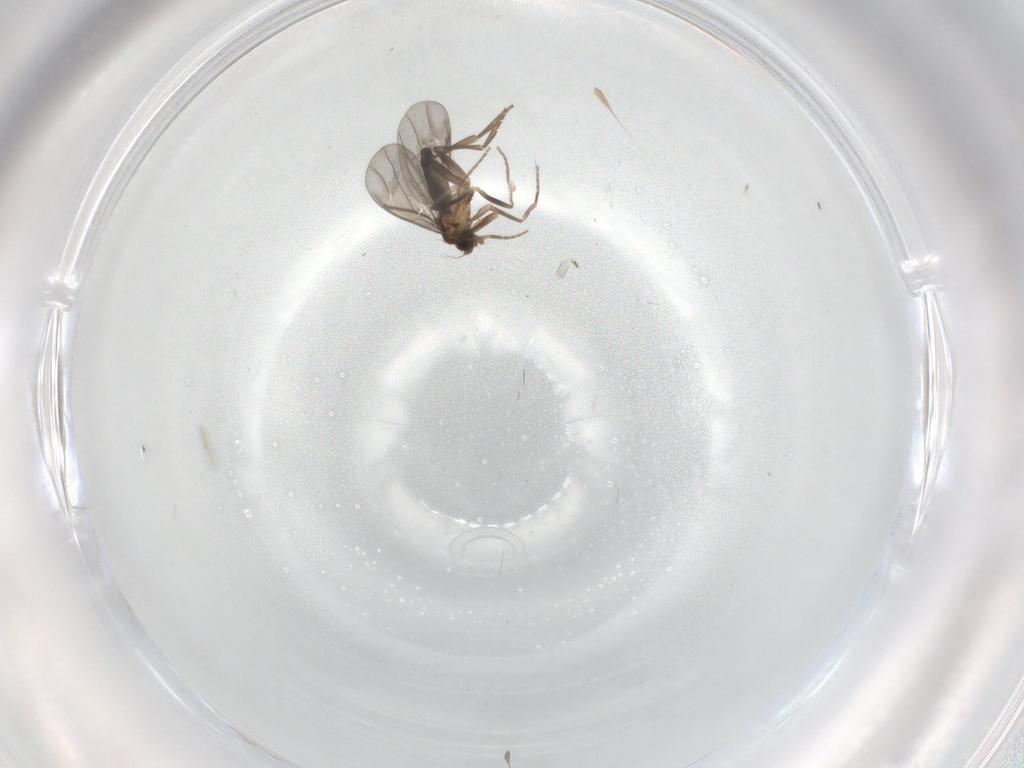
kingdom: Animalia
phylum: Arthropoda
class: Insecta
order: Diptera
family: Phoridae
